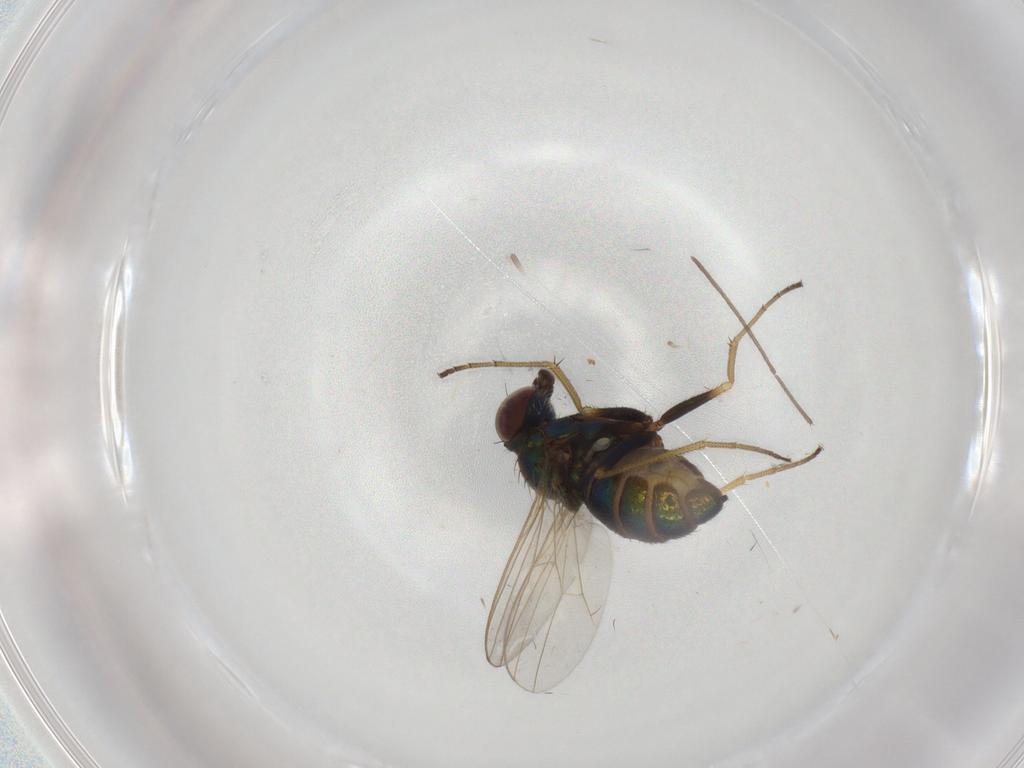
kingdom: Animalia
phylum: Arthropoda
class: Insecta
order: Diptera
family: Dolichopodidae
